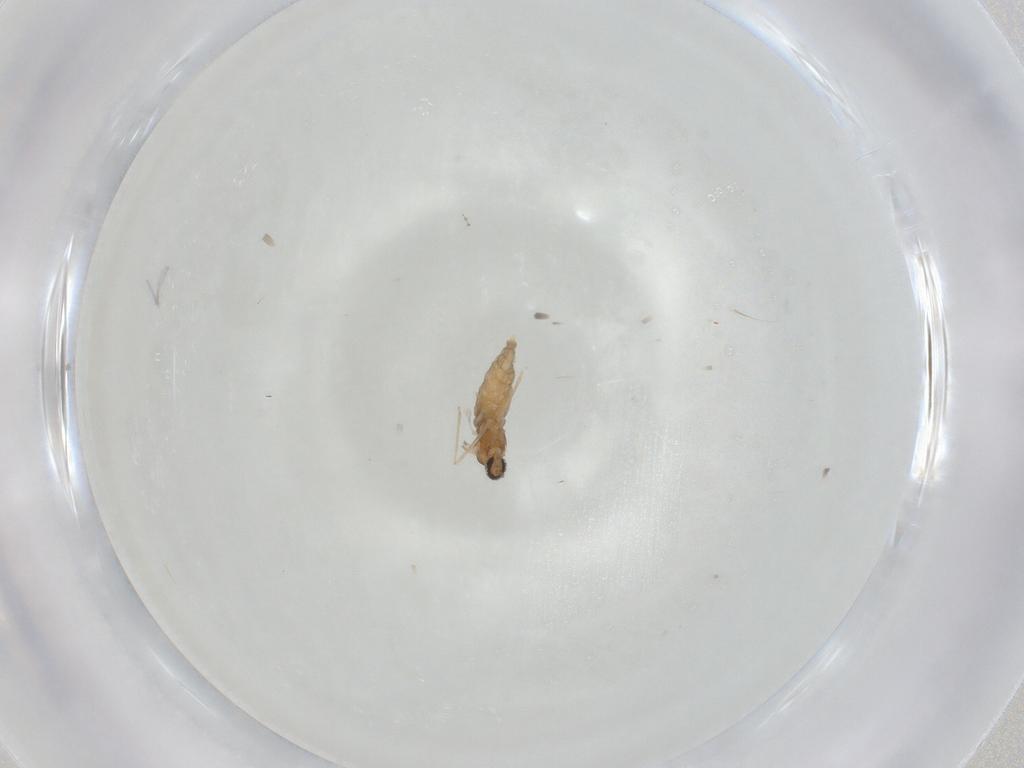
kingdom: Animalia
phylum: Arthropoda
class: Insecta
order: Diptera
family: Cecidomyiidae
